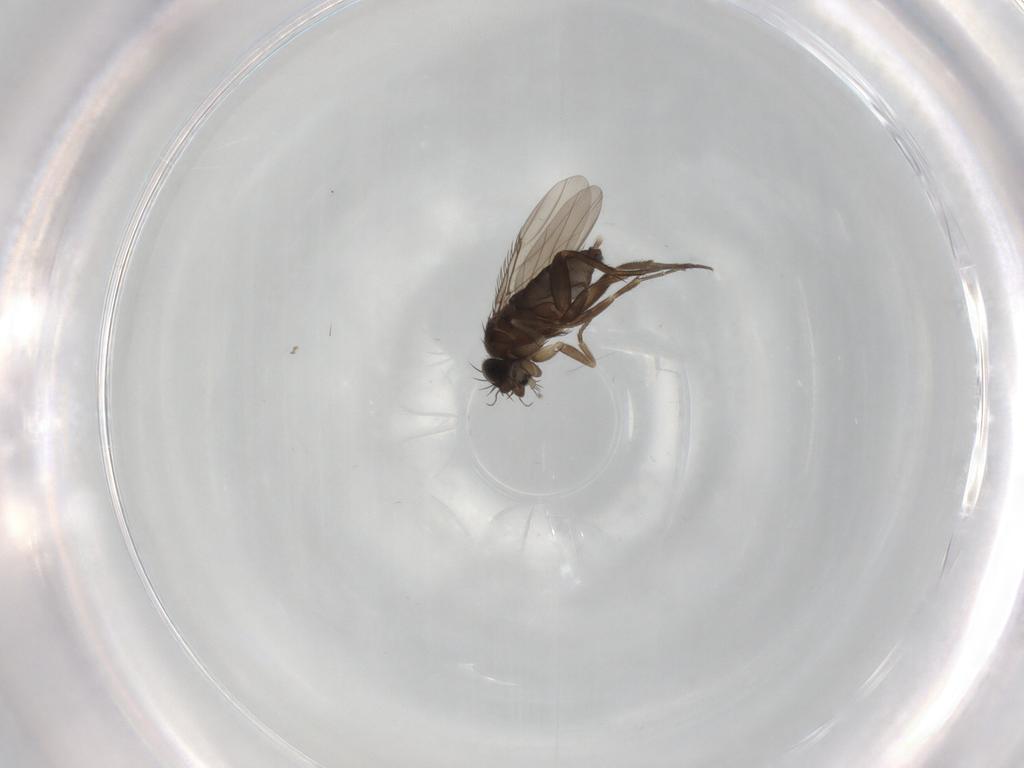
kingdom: Animalia
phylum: Arthropoda
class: Insecta
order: Diptera
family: Phoridae
